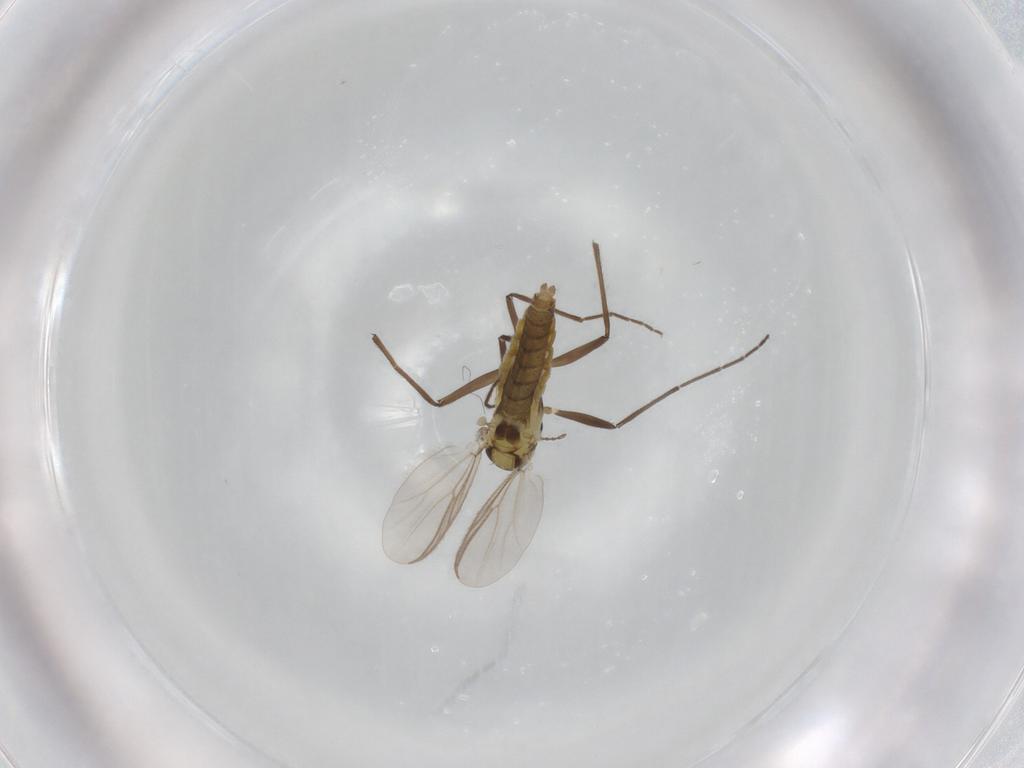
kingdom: Animalia
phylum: Arthropoda
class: Insecta
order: Diptera
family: Chironomidae
